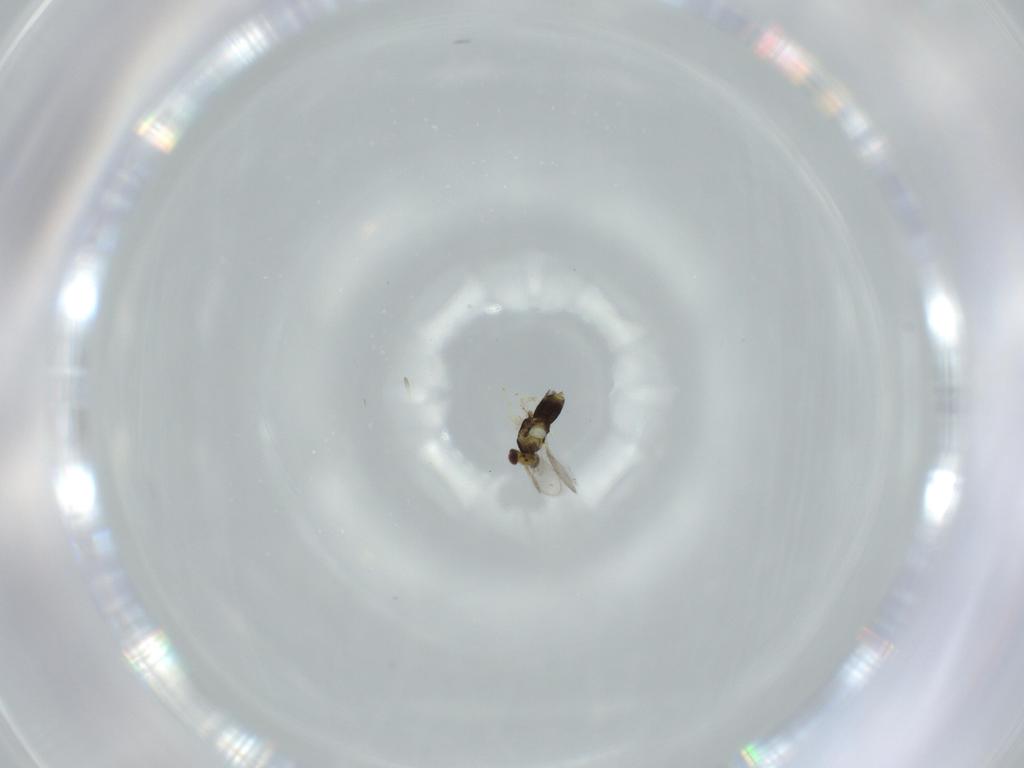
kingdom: Animalia
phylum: Arthropoda
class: Insecta
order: Hymenoptera
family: Aphelinidae
